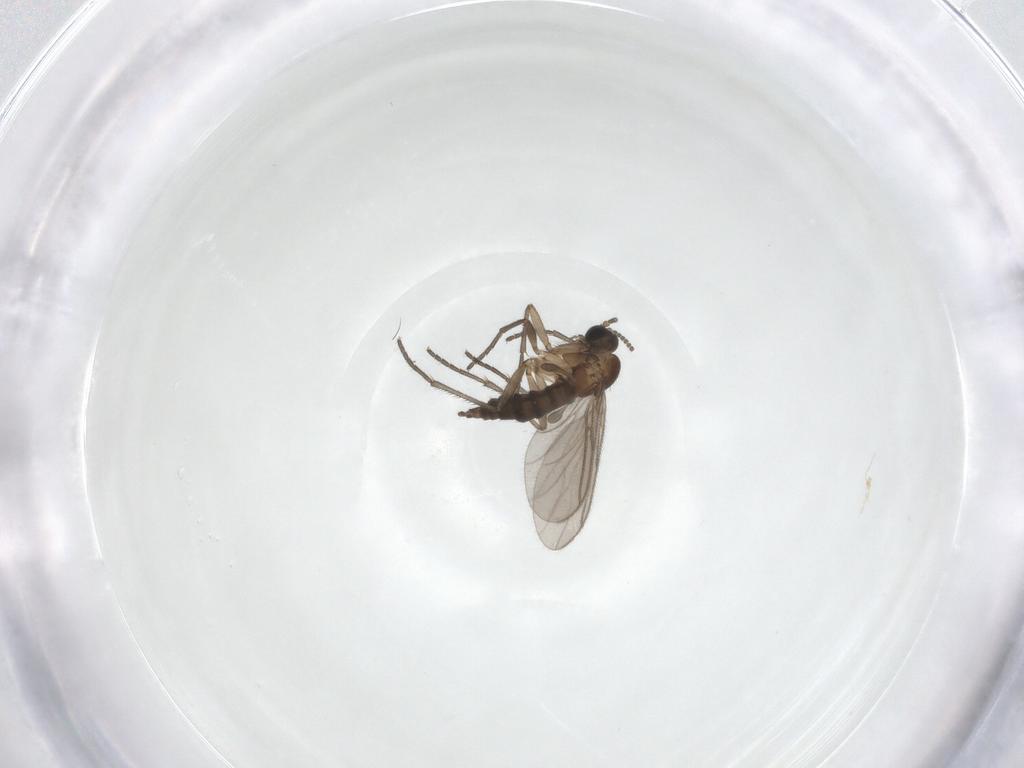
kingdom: Animalia
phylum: Arthropoda
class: Insecta
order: Diptera
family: Sciaridae
